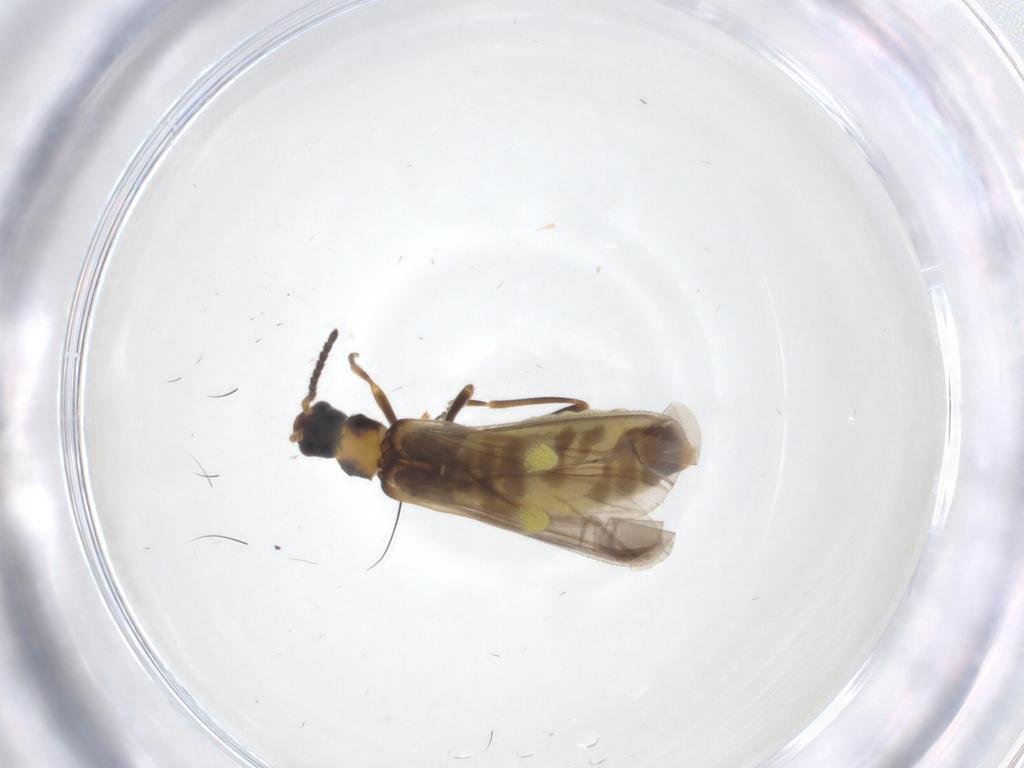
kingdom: Animalia
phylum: Arthropoda
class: Insecta
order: Coleoptera
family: Cantharidae
